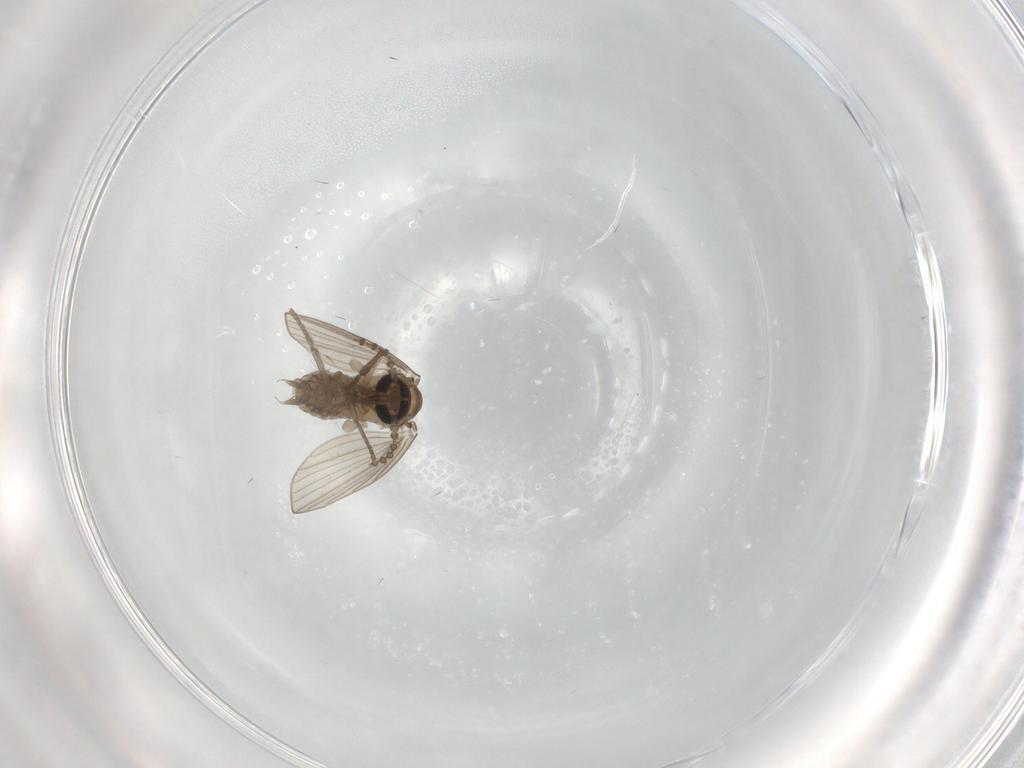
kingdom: Animalia
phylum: Arthropoda
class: Insecta
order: Diptera
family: Psychodidae
